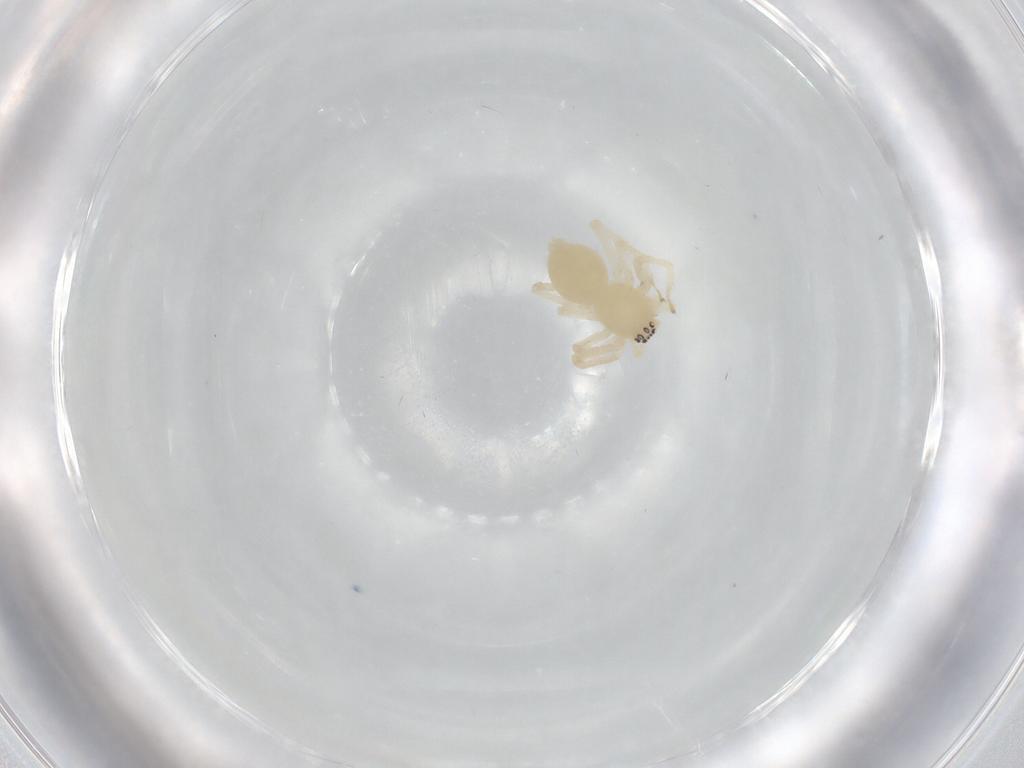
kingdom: Animalia
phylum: Arthropoda
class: Arachnida
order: Araneae
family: Anyphaenidae
